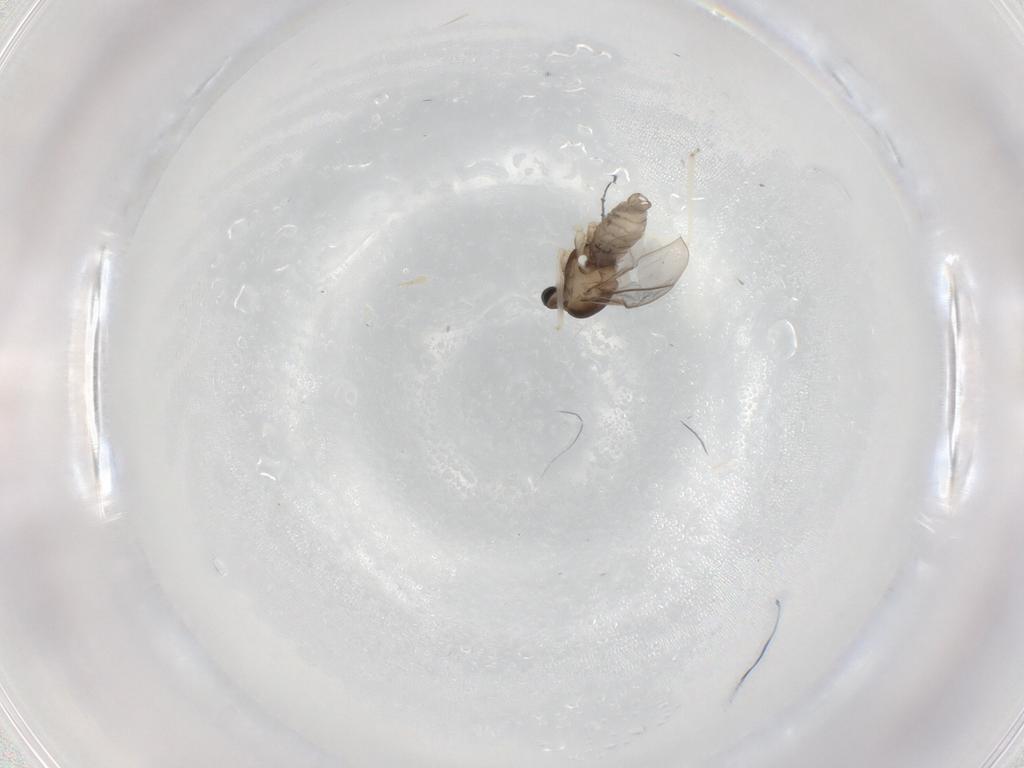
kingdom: Animalia
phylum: Arthropoda
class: Insecta
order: Diptera
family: Cecidomyiidae
